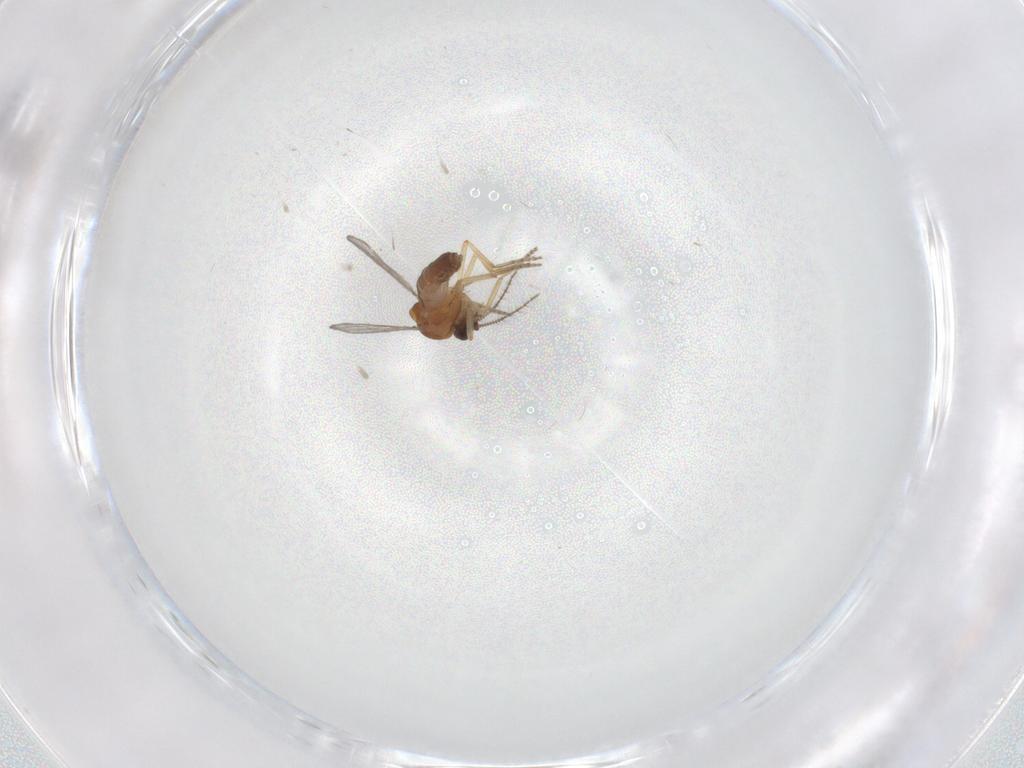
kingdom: Animalia
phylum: Arthropoda
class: Insecta
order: Diptera
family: Ceratopogonidae
